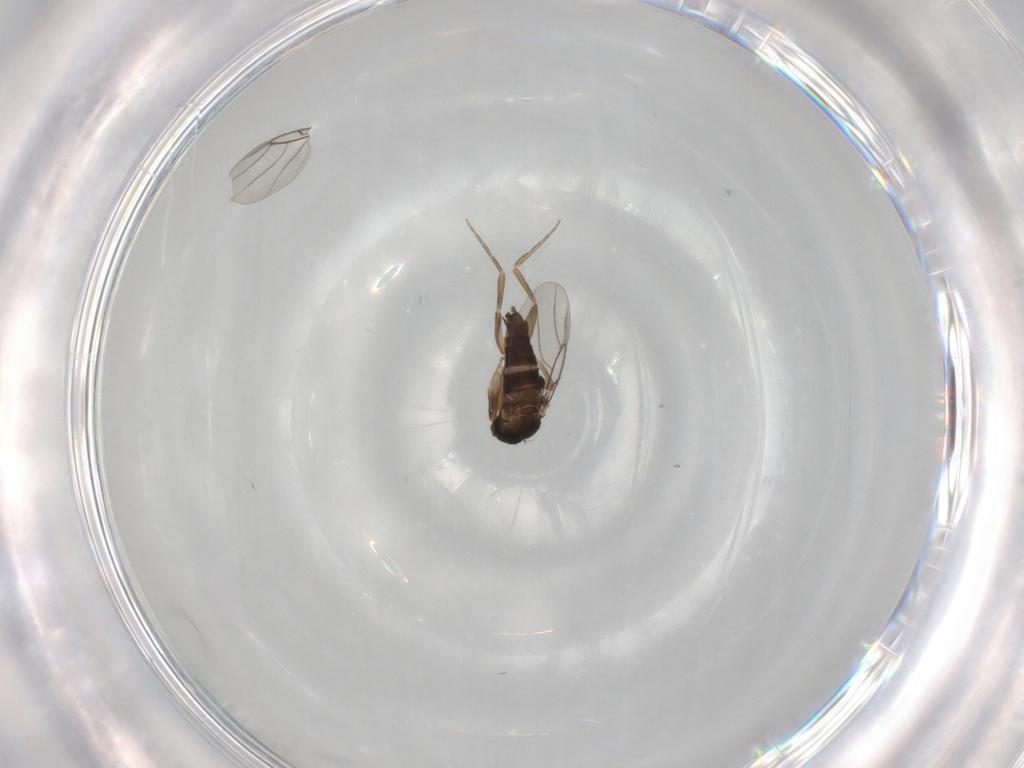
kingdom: Animalia
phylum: Arthropoda
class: Insecta
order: Diptera
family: Phoridae
